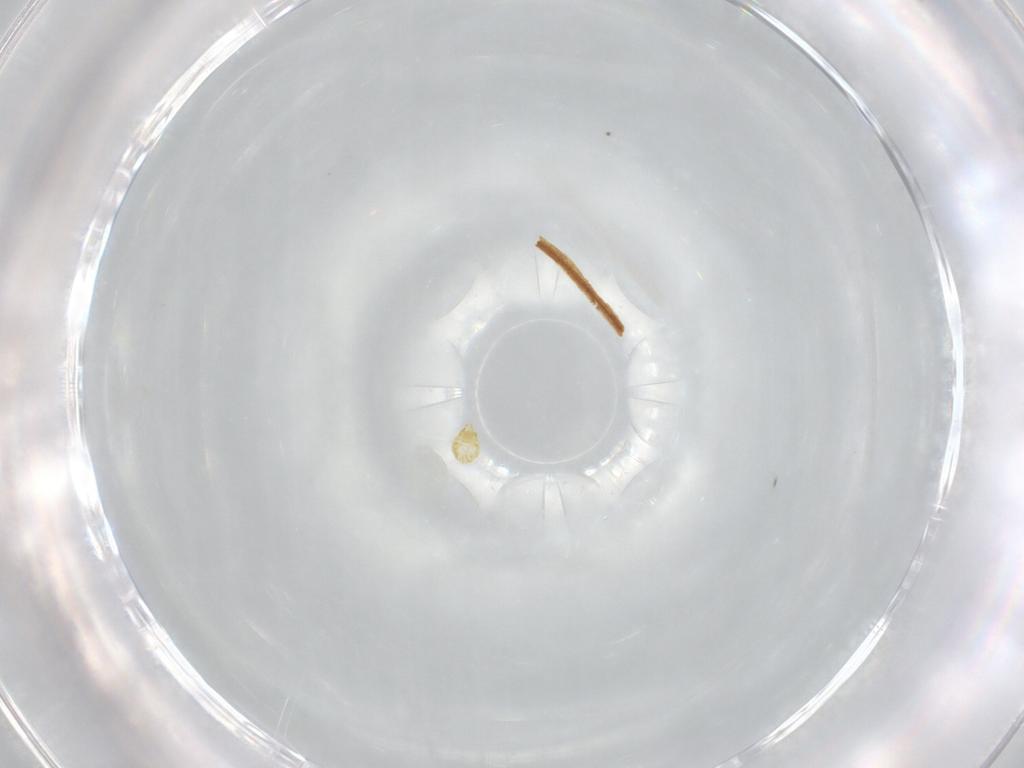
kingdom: Animalia
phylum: Arthropoda
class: Arachnida
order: Trombidiformes
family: Tetranychidae
